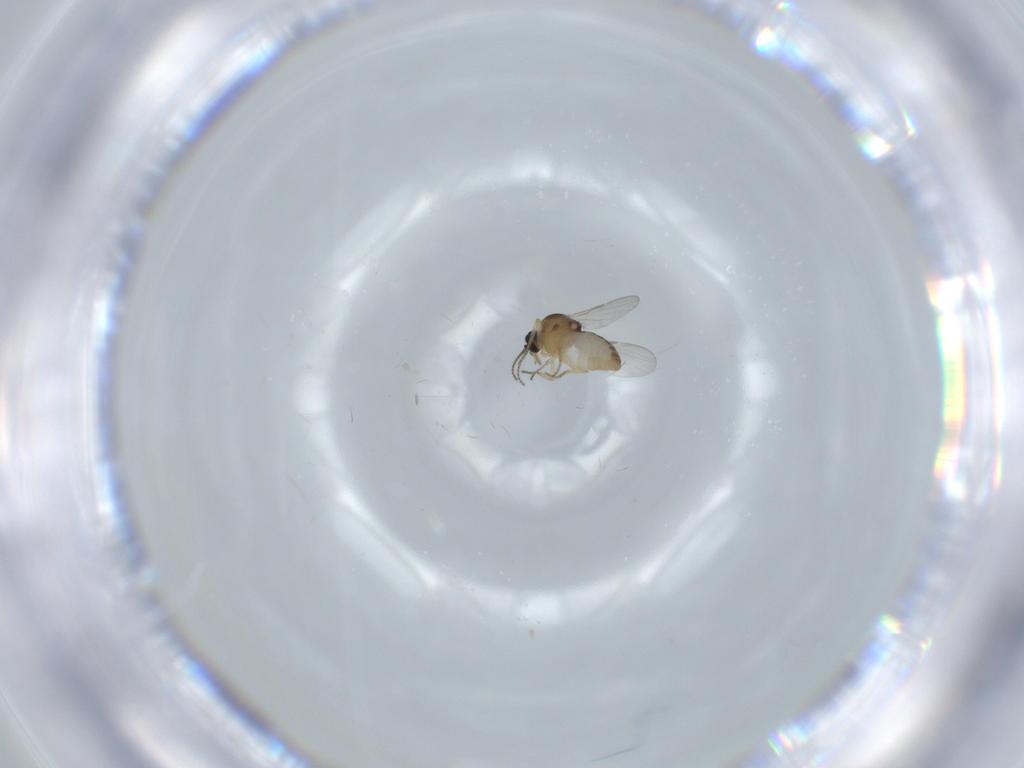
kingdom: Animalia
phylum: Arthropoda
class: Insecta
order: Diptera
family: Ceratopogonidae
